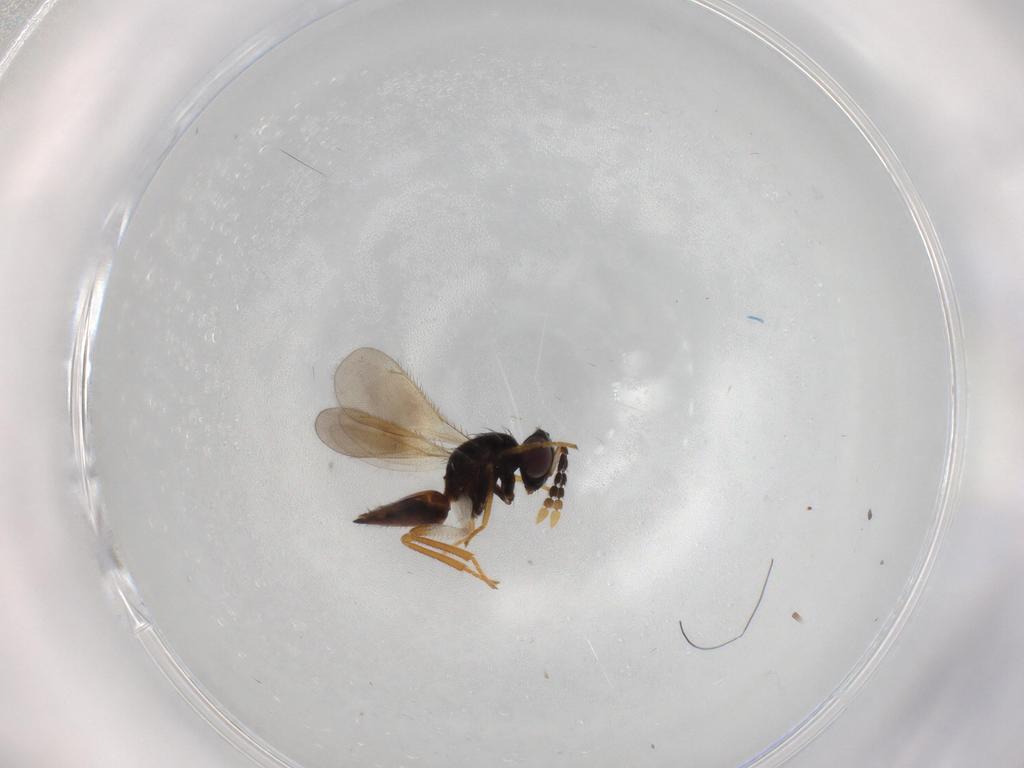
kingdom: Animalia
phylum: Arthropoda
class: Insecta
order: Hymenoptera
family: Eulophidae
